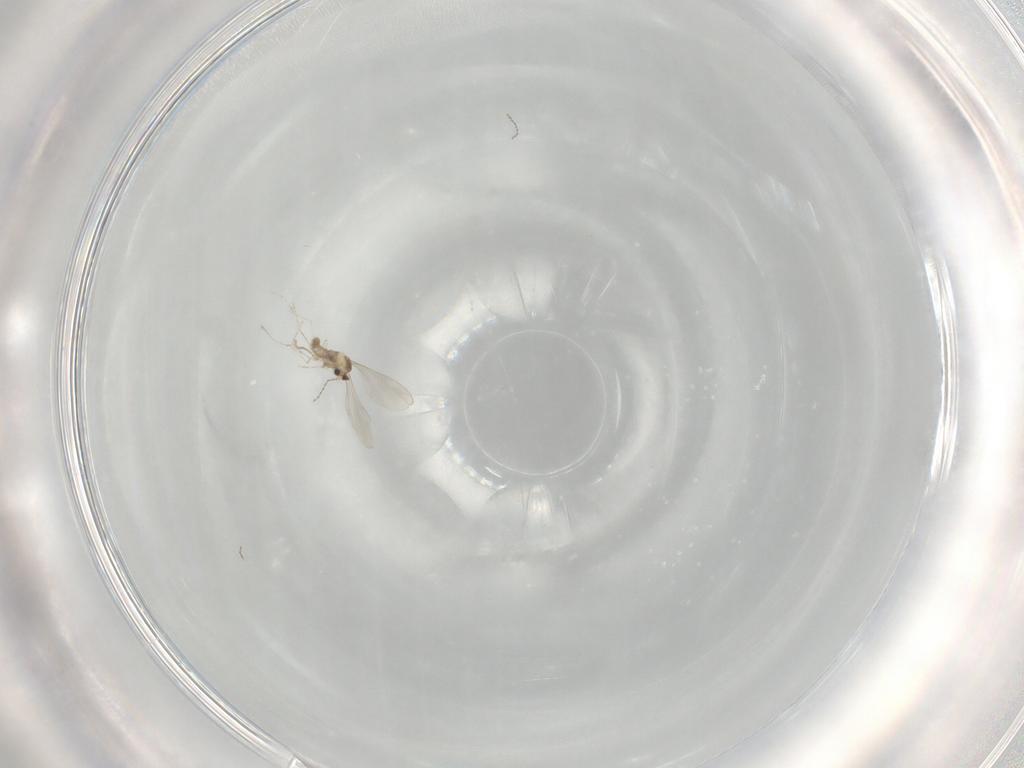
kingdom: Animalia
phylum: Arthropoda
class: Insecta
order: Diptera
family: Cecidomyiidae
